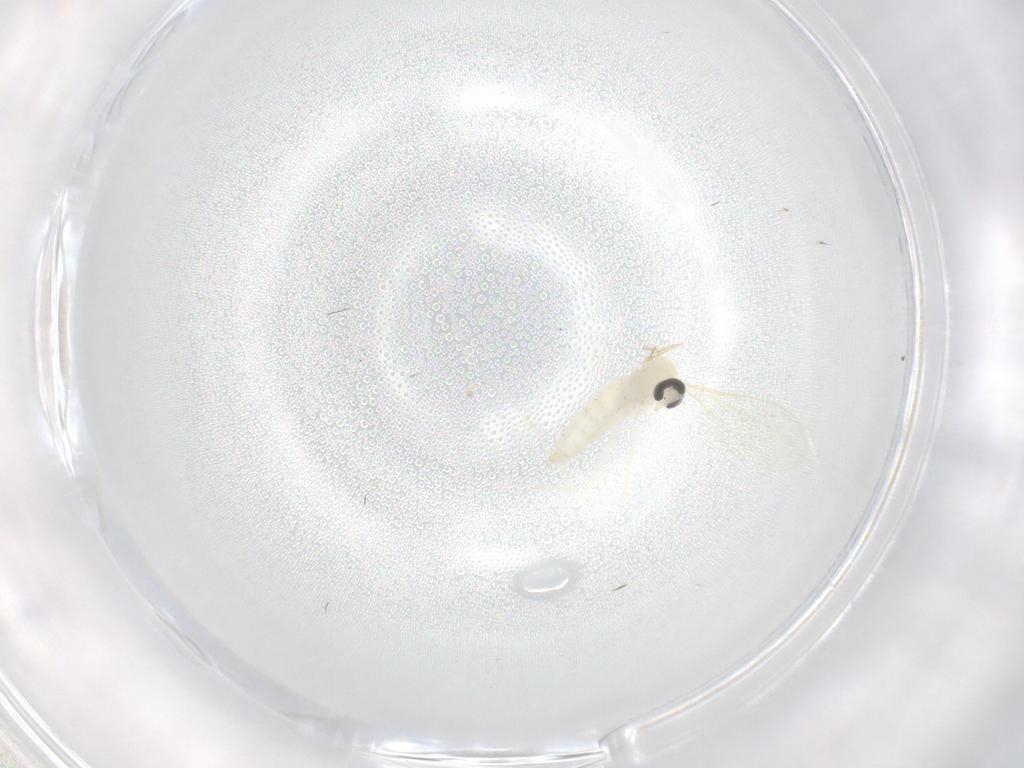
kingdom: Animalia
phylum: Arthropoda
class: Insecta
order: Diptera
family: Cecidomyiidae
